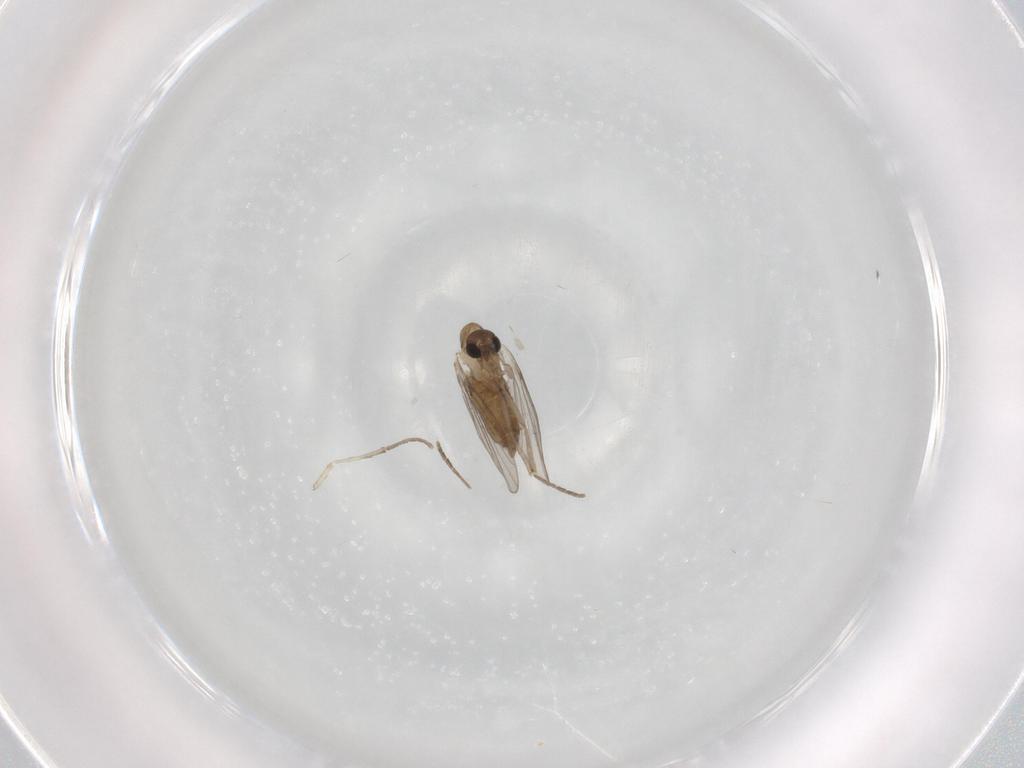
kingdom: Animalia
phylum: Arthropoda
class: Insecta
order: Diptera
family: Psychodidae
